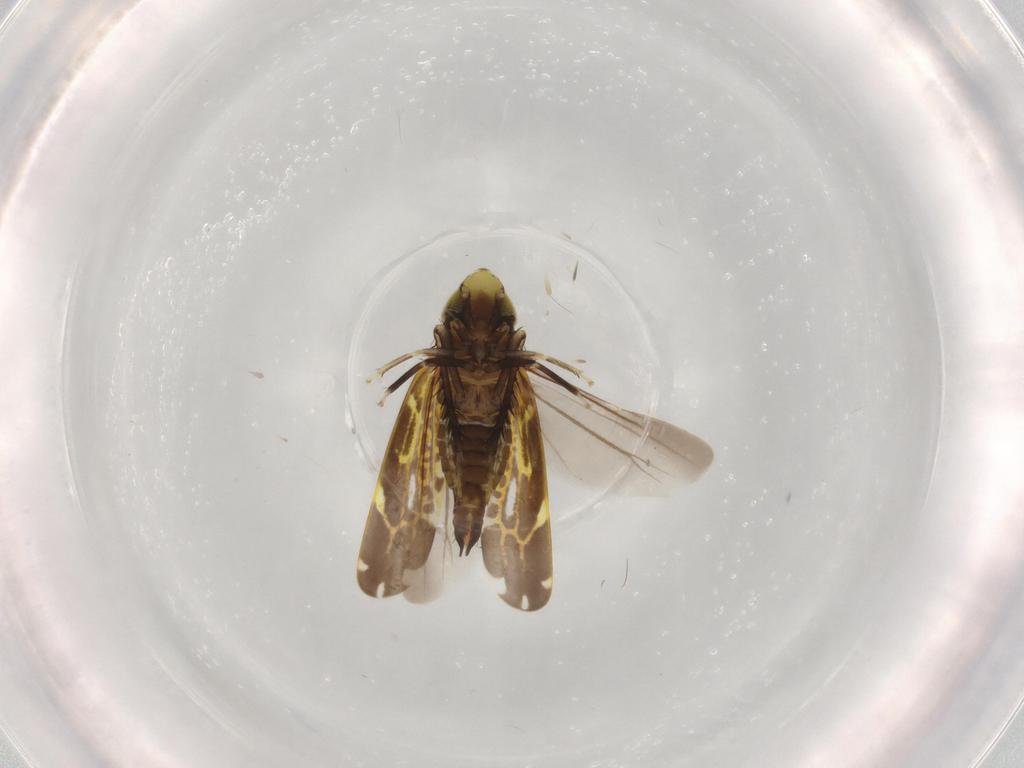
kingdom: Animalia
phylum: Arthropoda
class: Insecta
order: Hemiptera
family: Cicadellidae
